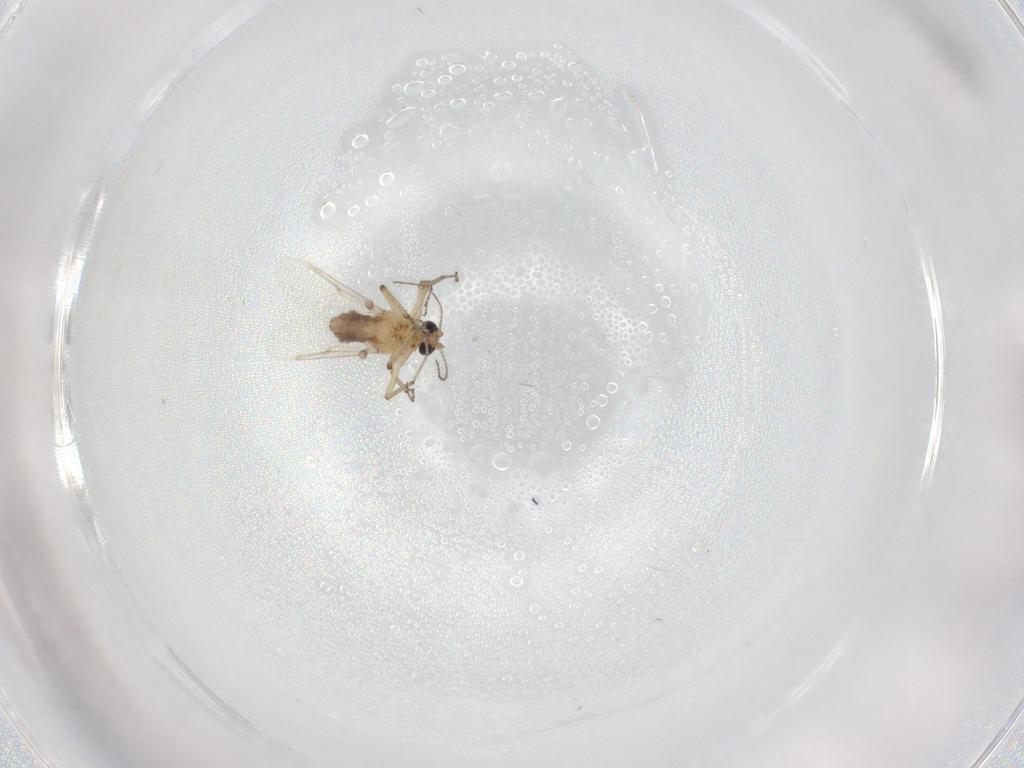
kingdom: Animalia
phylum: Arthropoda
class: Insecta
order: Diptera
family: Ceratopogonidae
